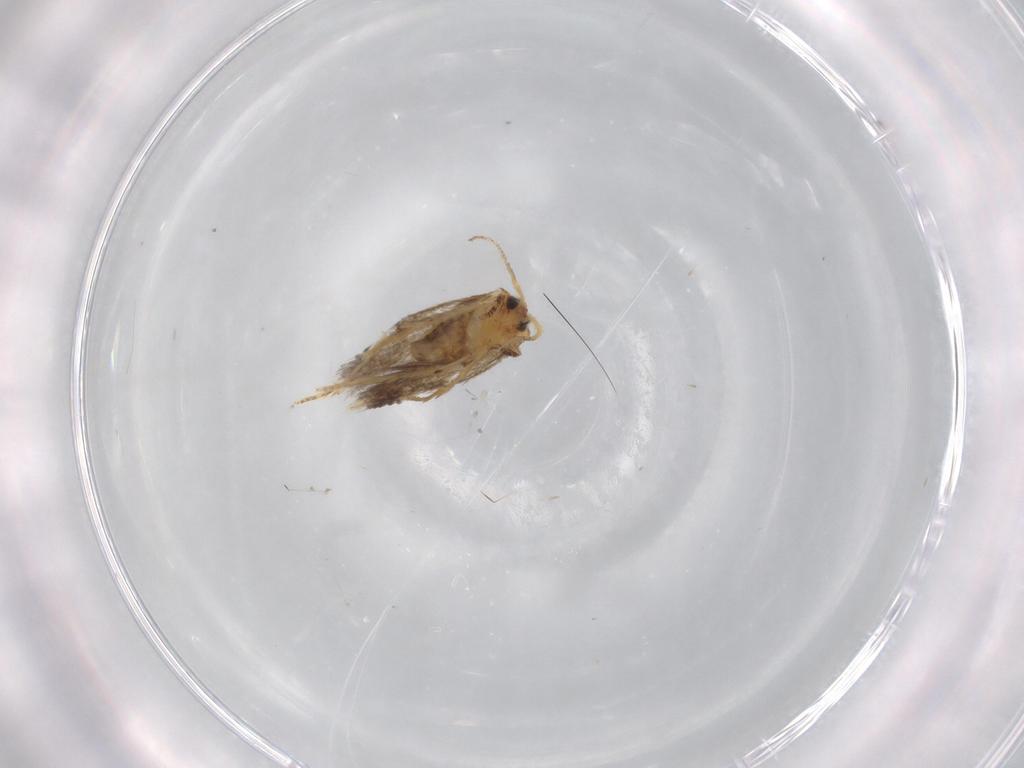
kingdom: Animalia
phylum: Arthropoda
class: Insecta
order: Lepidoptera
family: Nepticulidae
